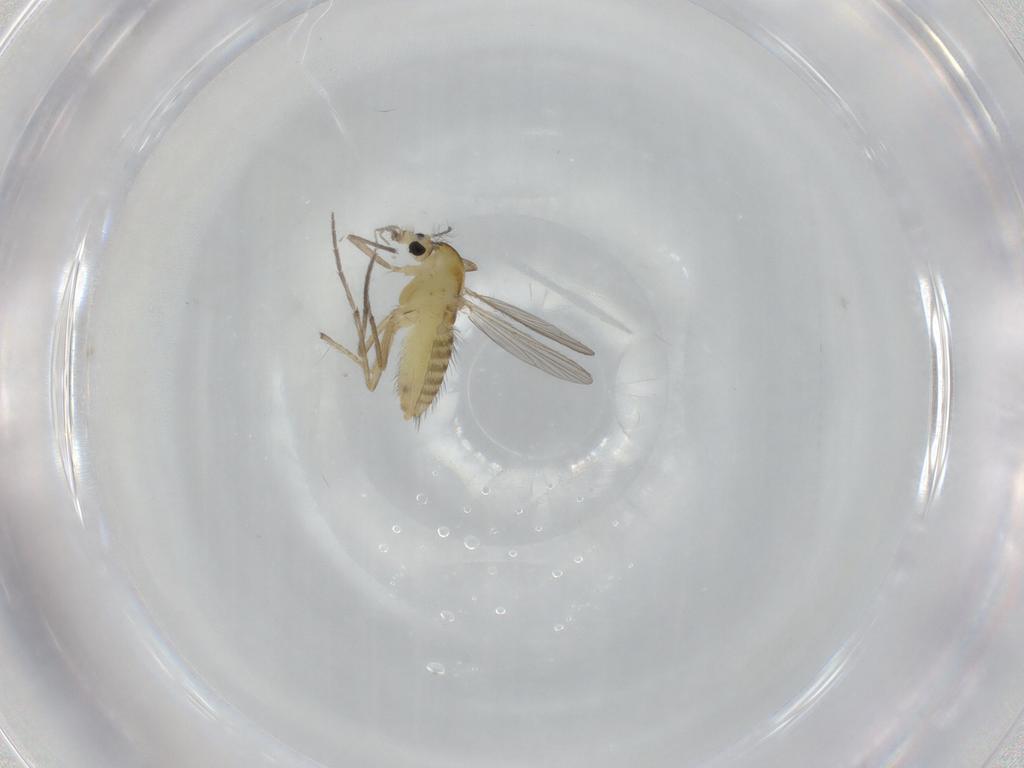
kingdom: Animalia
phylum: Arthropoda
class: Insecta
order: Diptera
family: Chironomidae
